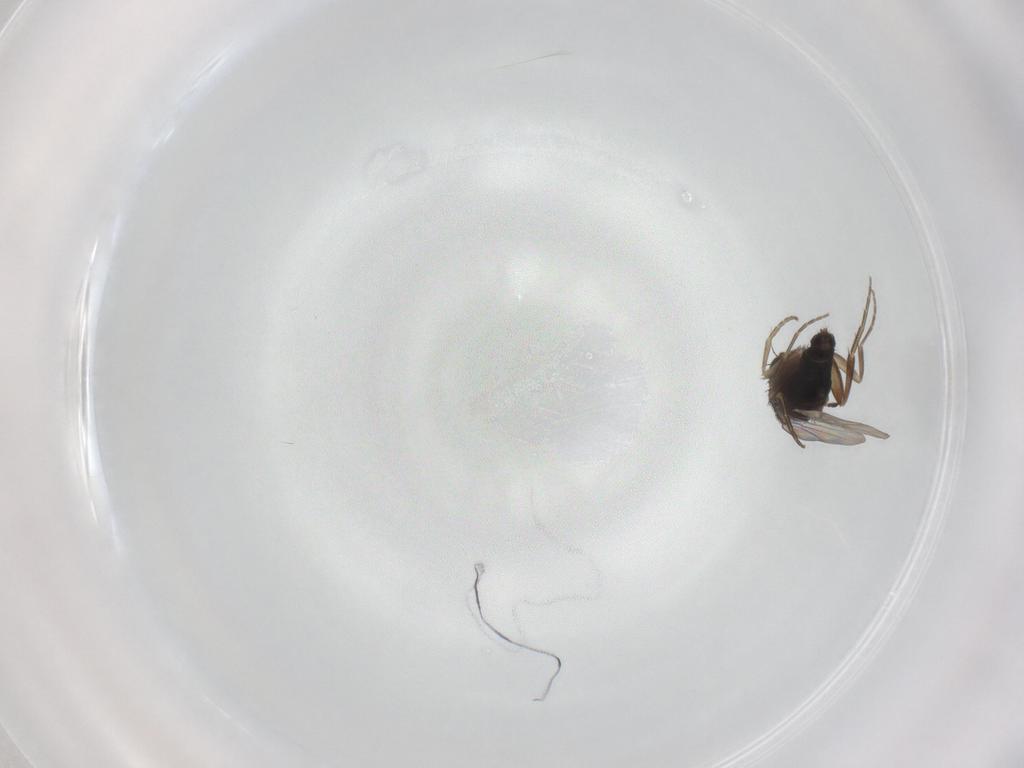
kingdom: Animalia
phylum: Arthropoda
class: Insecta
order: Diptera
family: Phoridae
